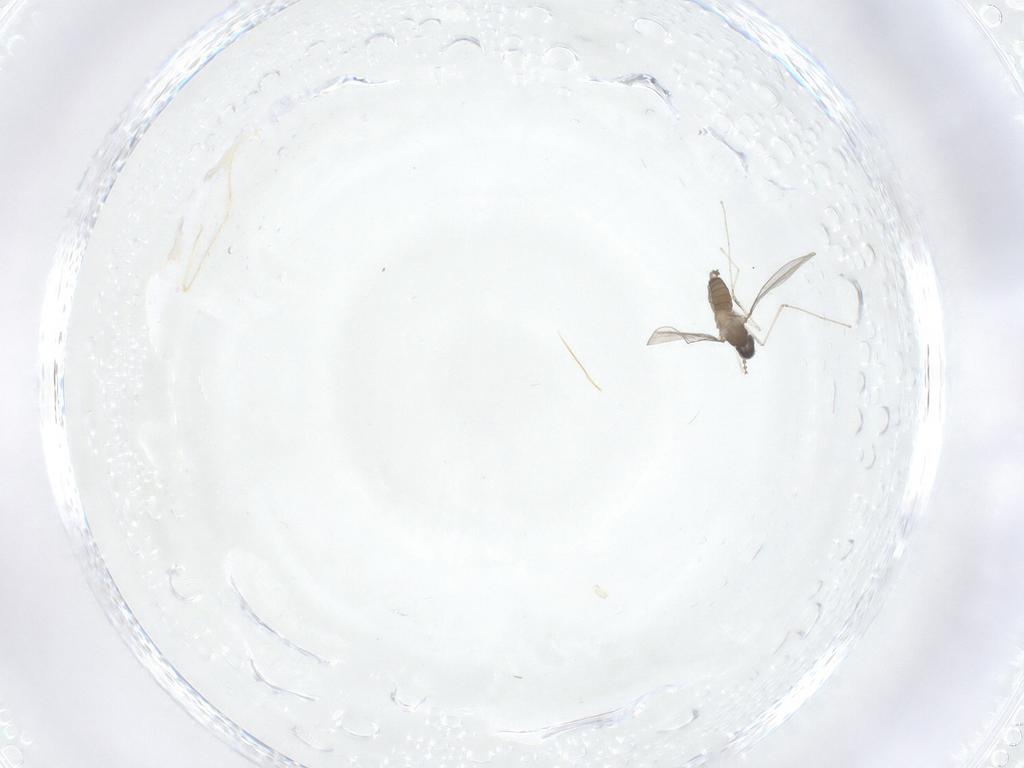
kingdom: Animalia
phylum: Arthropoda
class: Insecta
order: Diptera
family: Cecidomyiidae
